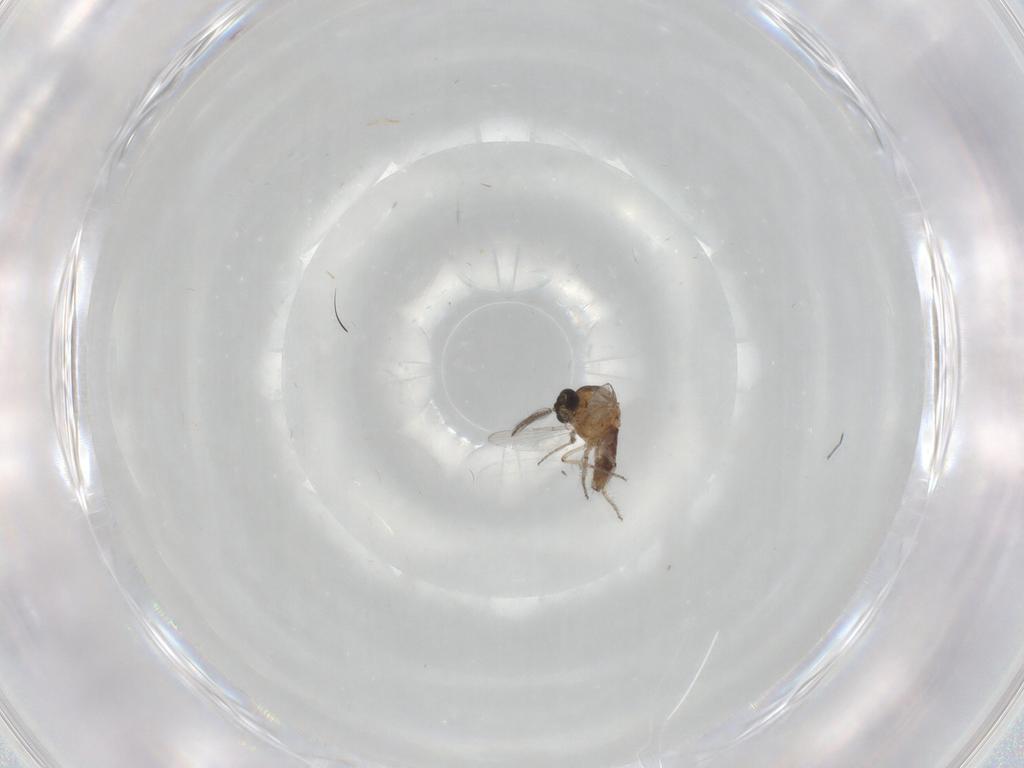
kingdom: Animalia
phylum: Arthropoda
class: Insecta
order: Diptera
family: Ceratopogonidae
